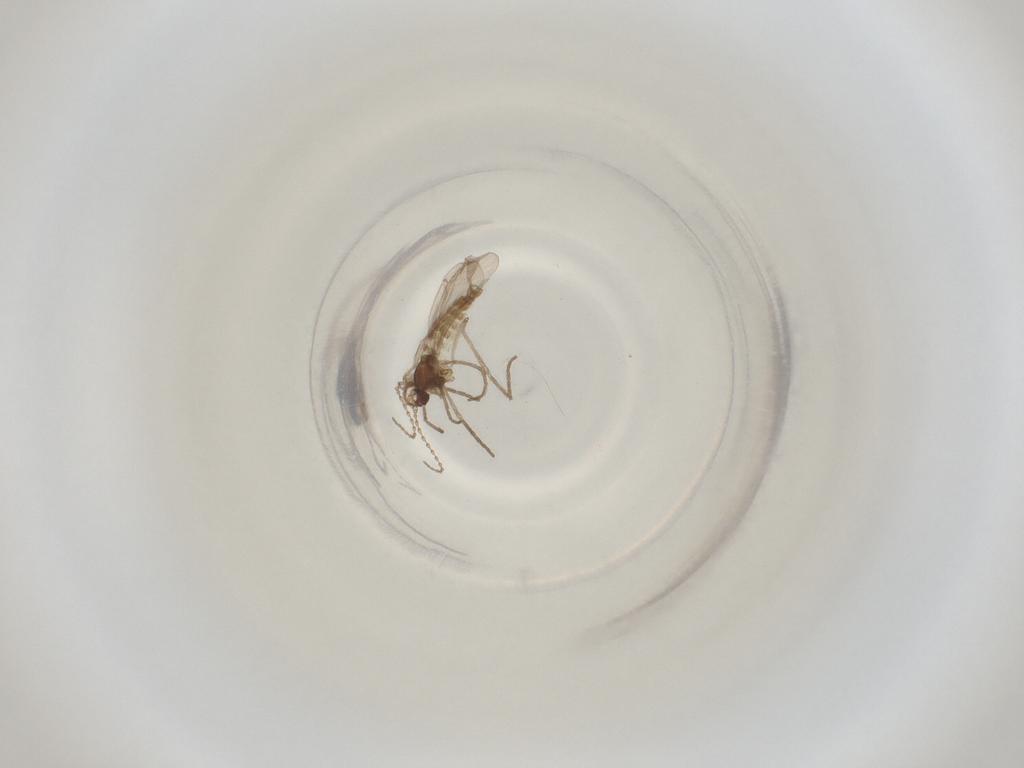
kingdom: Animalia
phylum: Arthropoda
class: Insecta
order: Diptera
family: Cecidomyiidae
